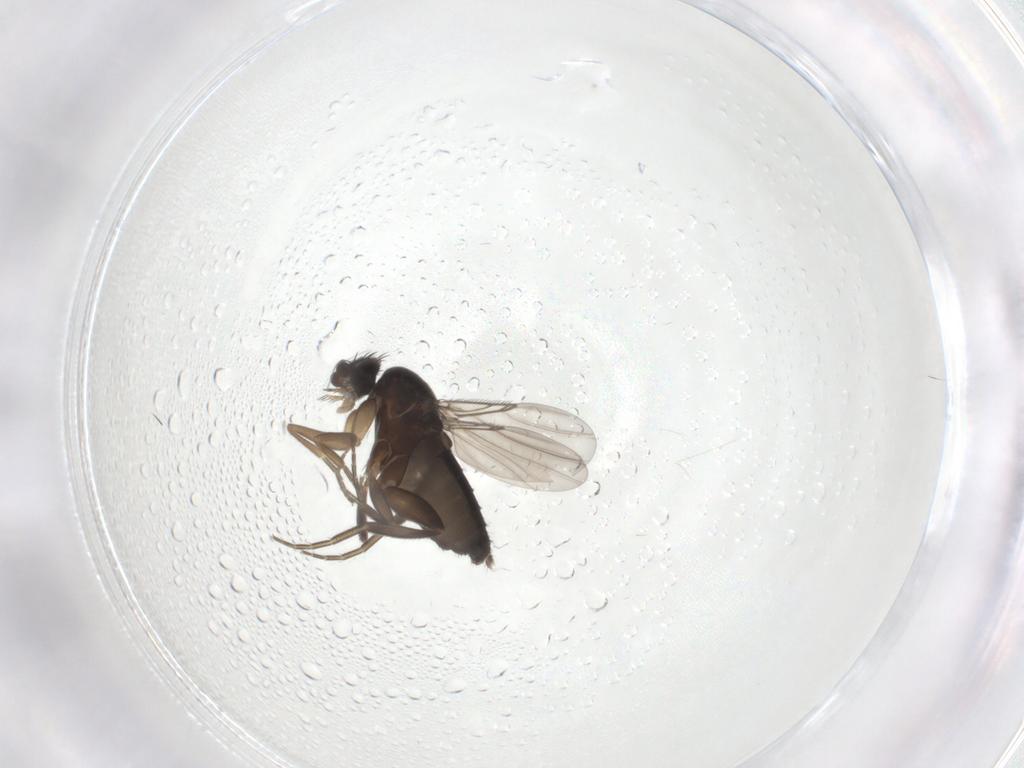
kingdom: Animalia
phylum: Arthropoda
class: Insecta
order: Diptera
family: Phoridae
